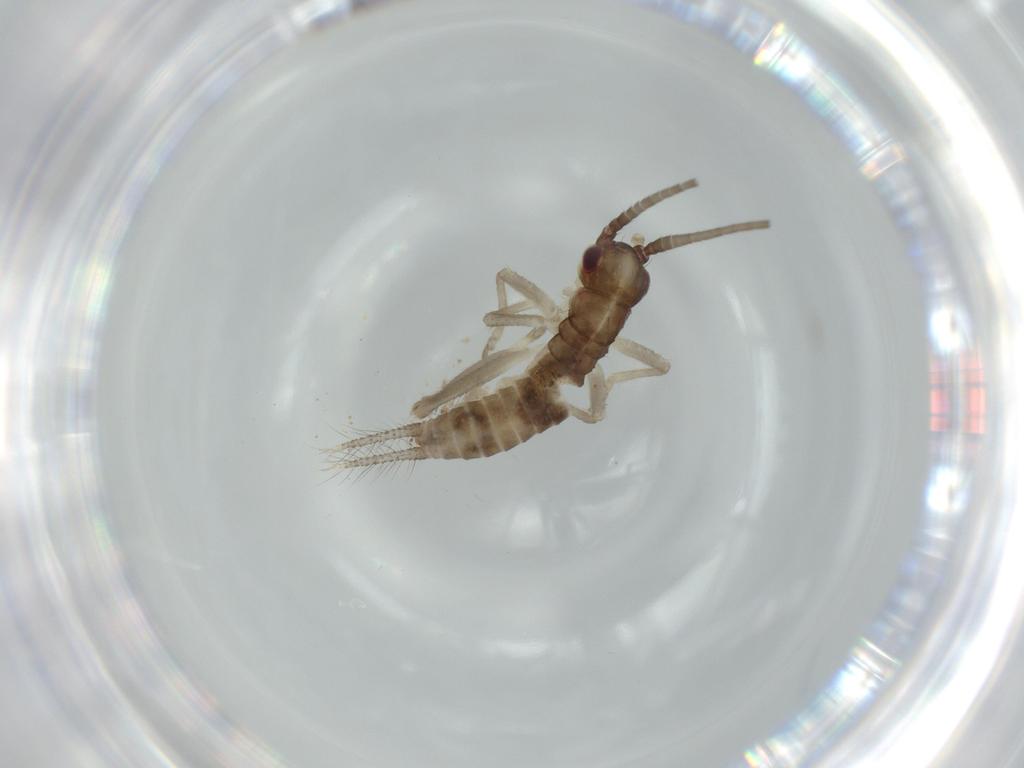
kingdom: Animalia
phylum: Arthropoda
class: Insecta
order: Orthoptera
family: Gryllidae
